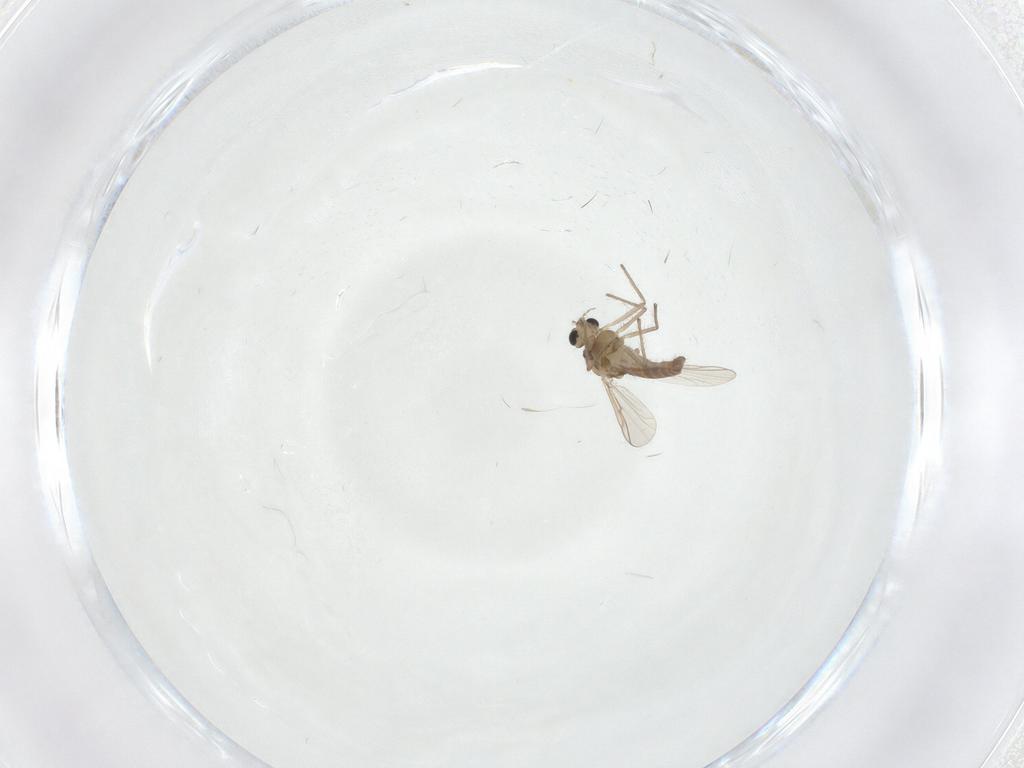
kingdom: Animalia
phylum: Arthropoda
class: Insecta
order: Diptera
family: Chironomidae
